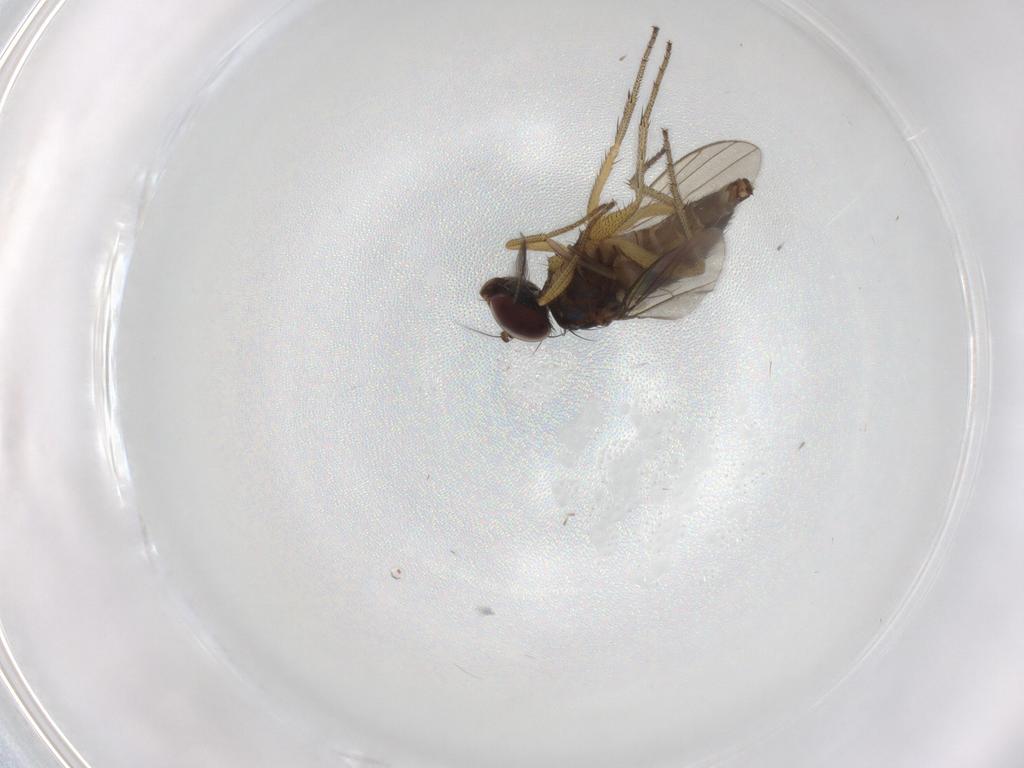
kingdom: Animalia
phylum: Arthropoda
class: Insecta
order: Diptera
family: Chironomidae
